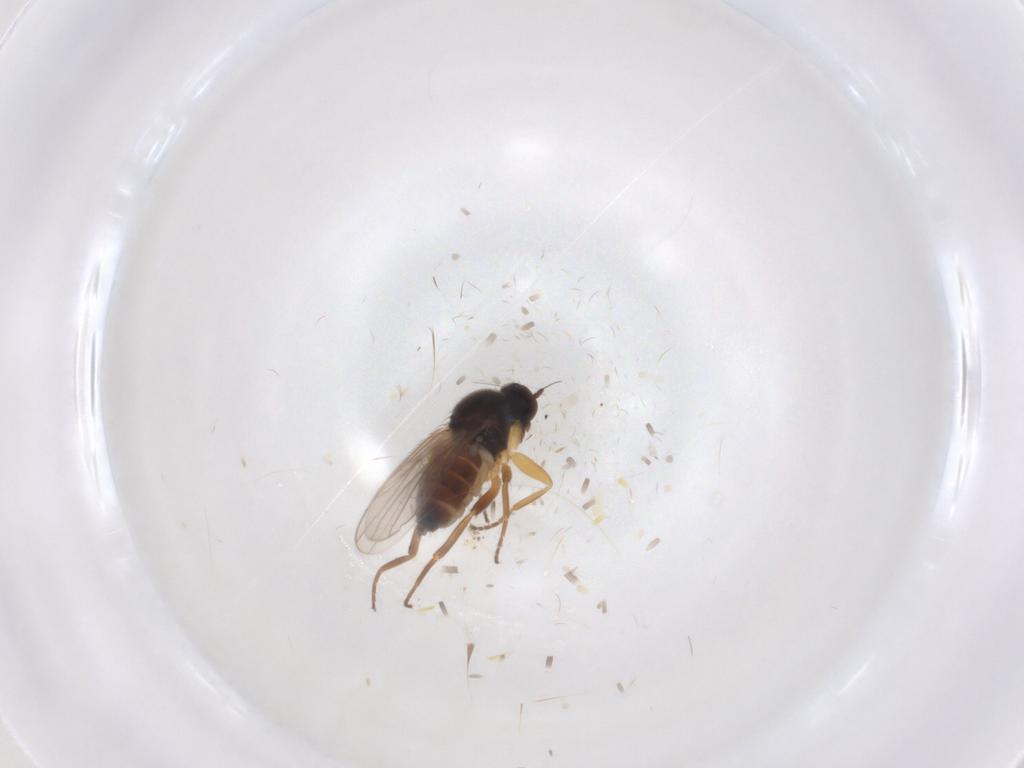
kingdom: Animalia
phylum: Arthropoda
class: Insecta
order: Diptera
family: Hybotidae
